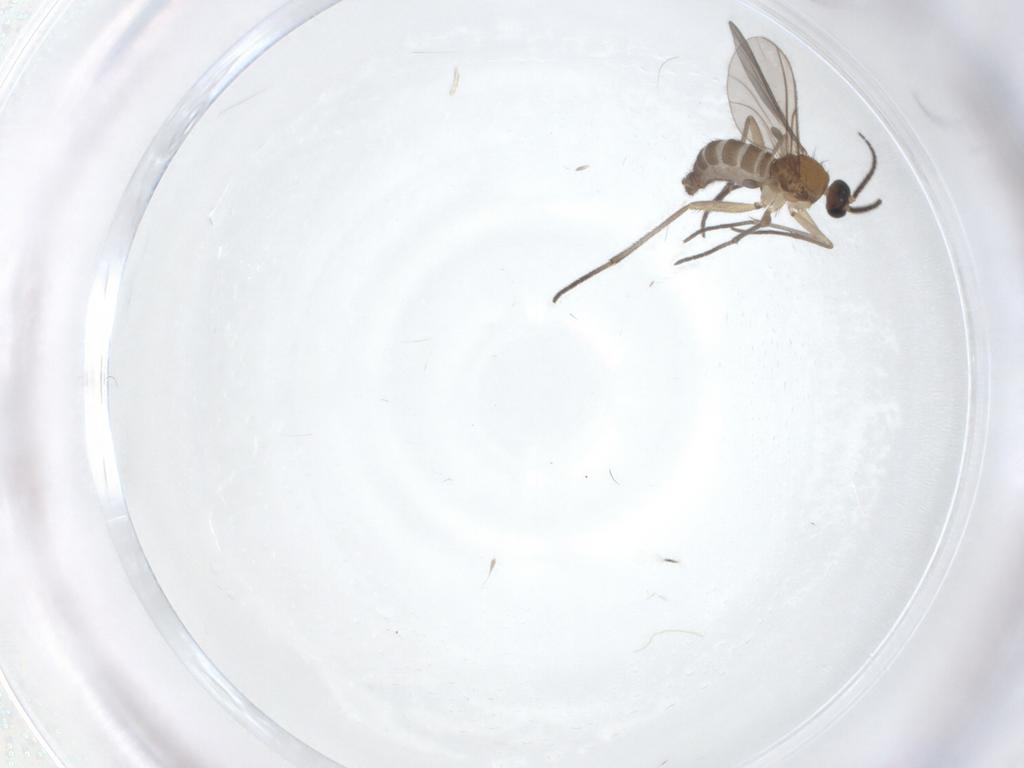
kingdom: Animalia
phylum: Arthropoda
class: Insecta
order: Diptera
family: Sciaridae
